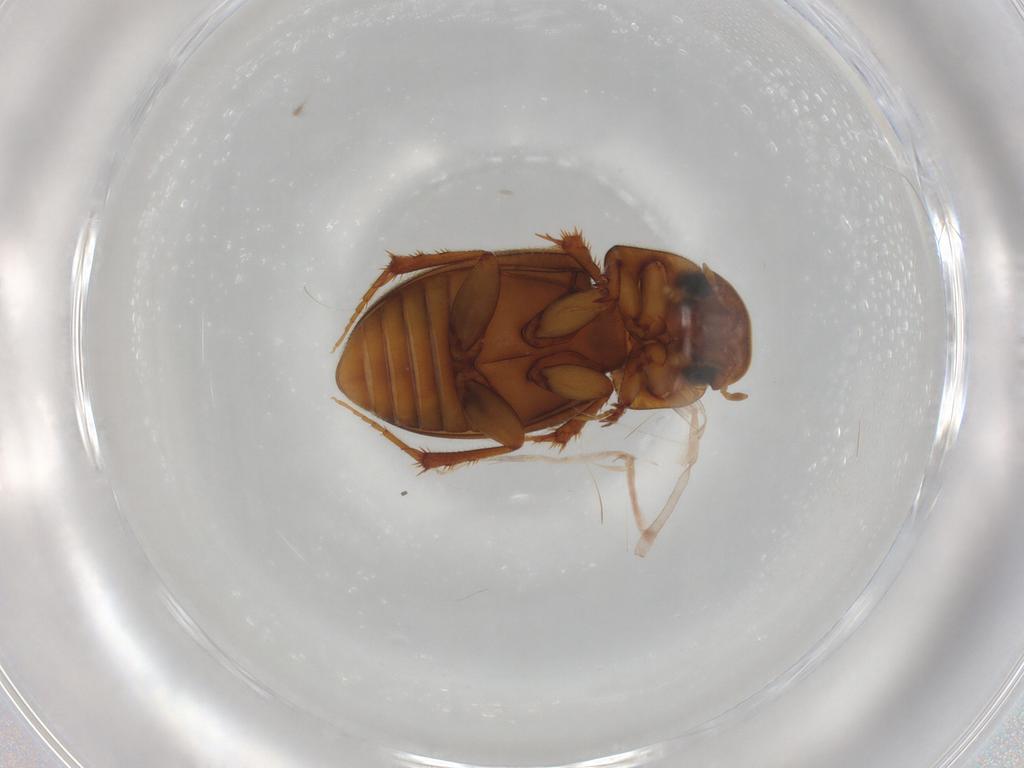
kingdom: Animalia
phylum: Arthropoda
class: Insecta
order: Coleoptera
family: Scarabaeidae
